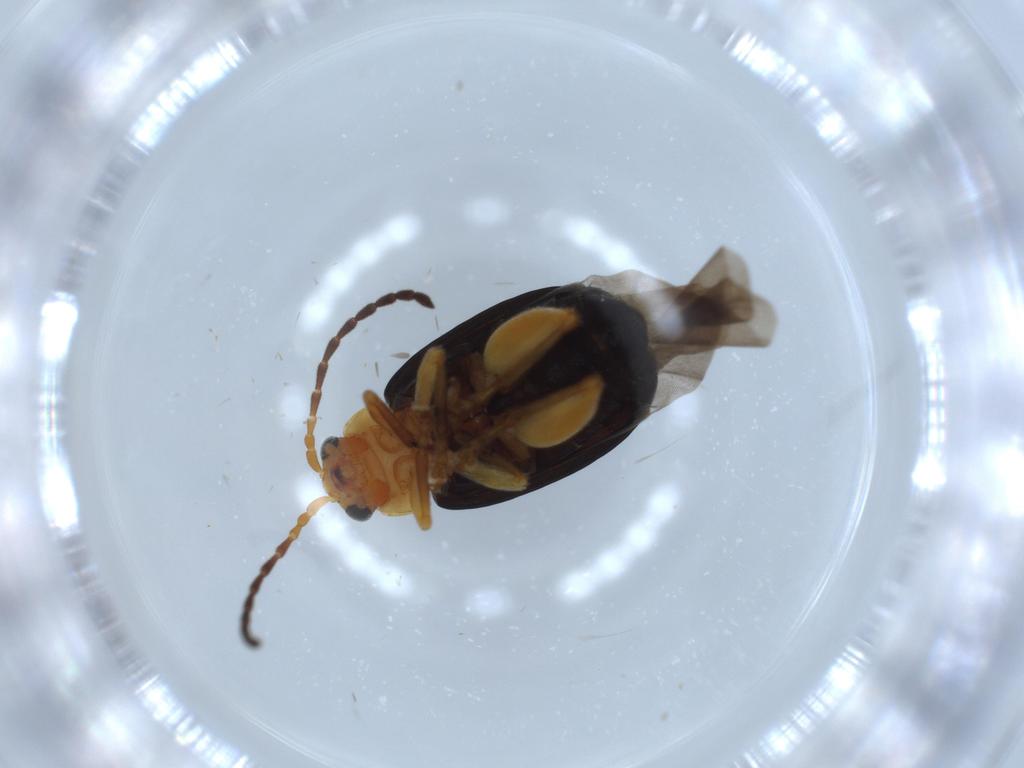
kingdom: Animalia
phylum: Arthropoda
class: Insecta
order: Coleoptera
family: Chrysomelidae
